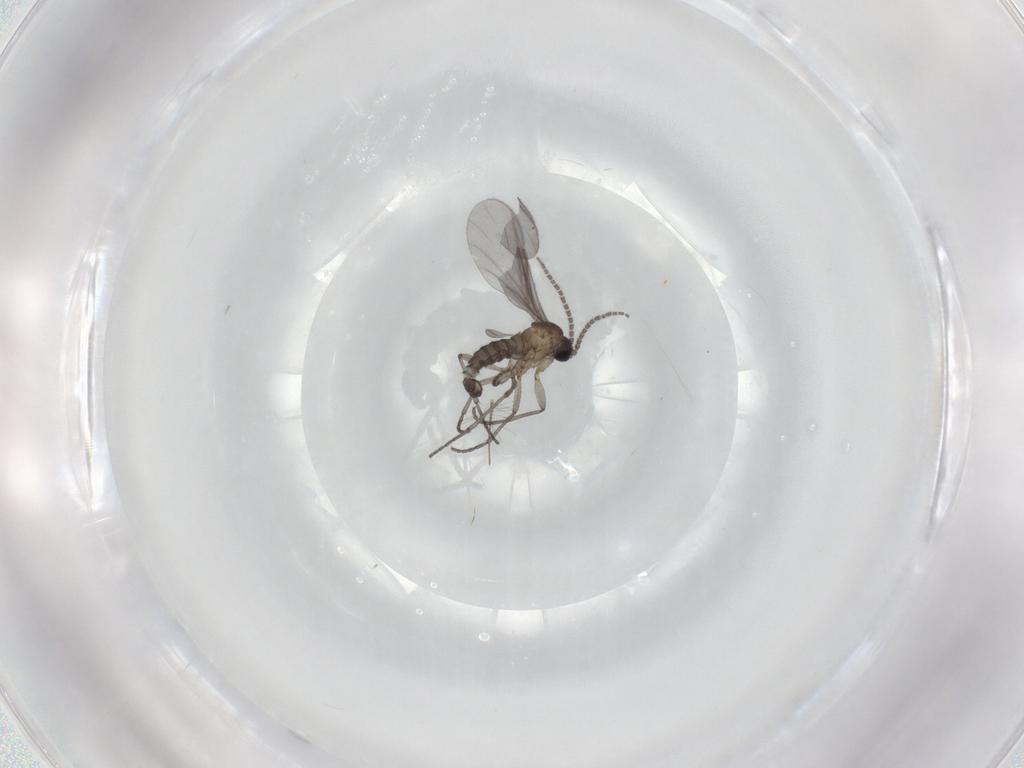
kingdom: Animalia
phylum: Arthropoda
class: Insecta
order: Diptera
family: Sciaridae
